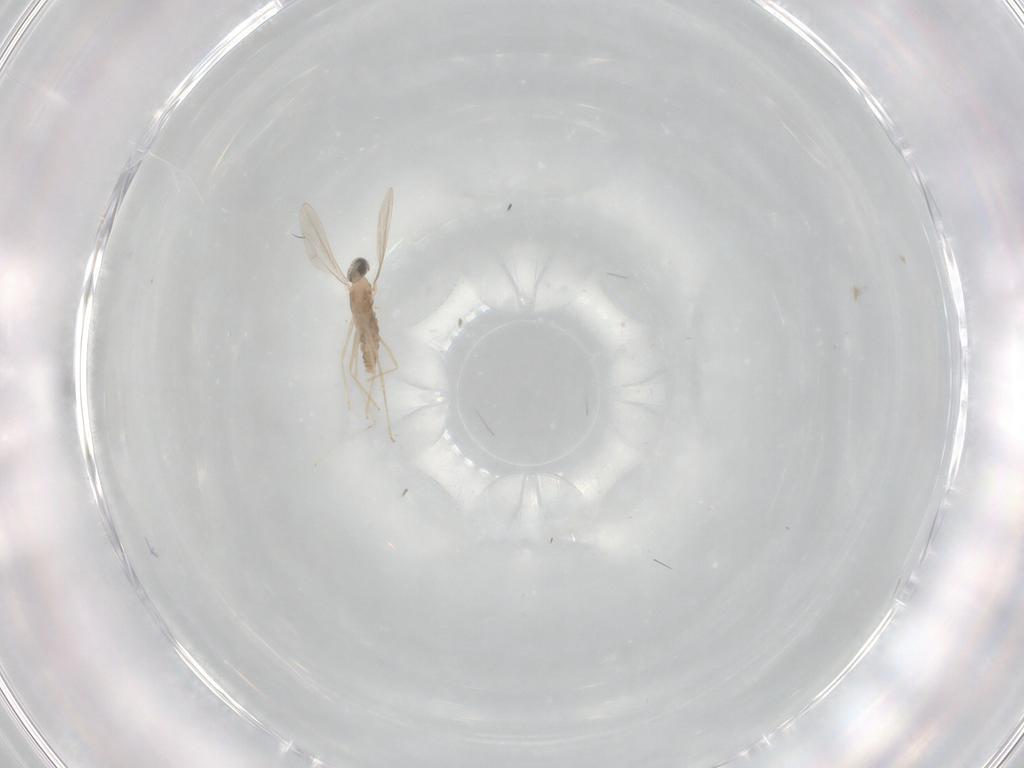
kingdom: Animalia
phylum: Arthropoda
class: Insecta
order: Diptera
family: Cecidomyiidae
